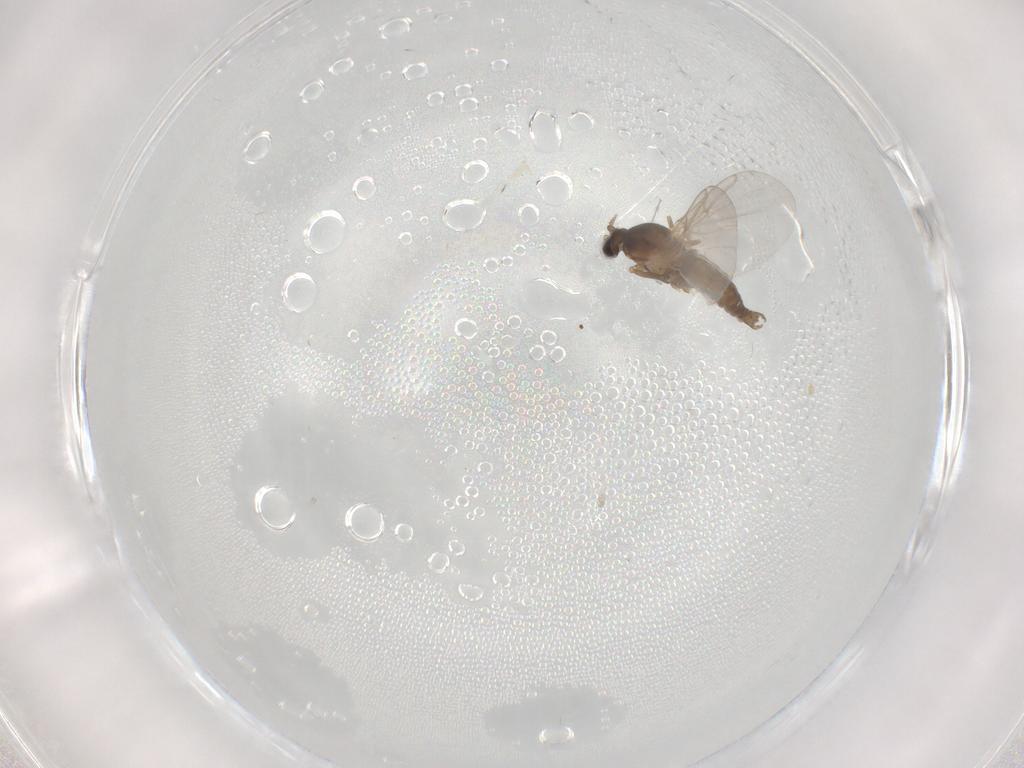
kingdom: Animalia
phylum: Arthropoda
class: Insecta
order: Diptera
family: Cecidomyiidae
